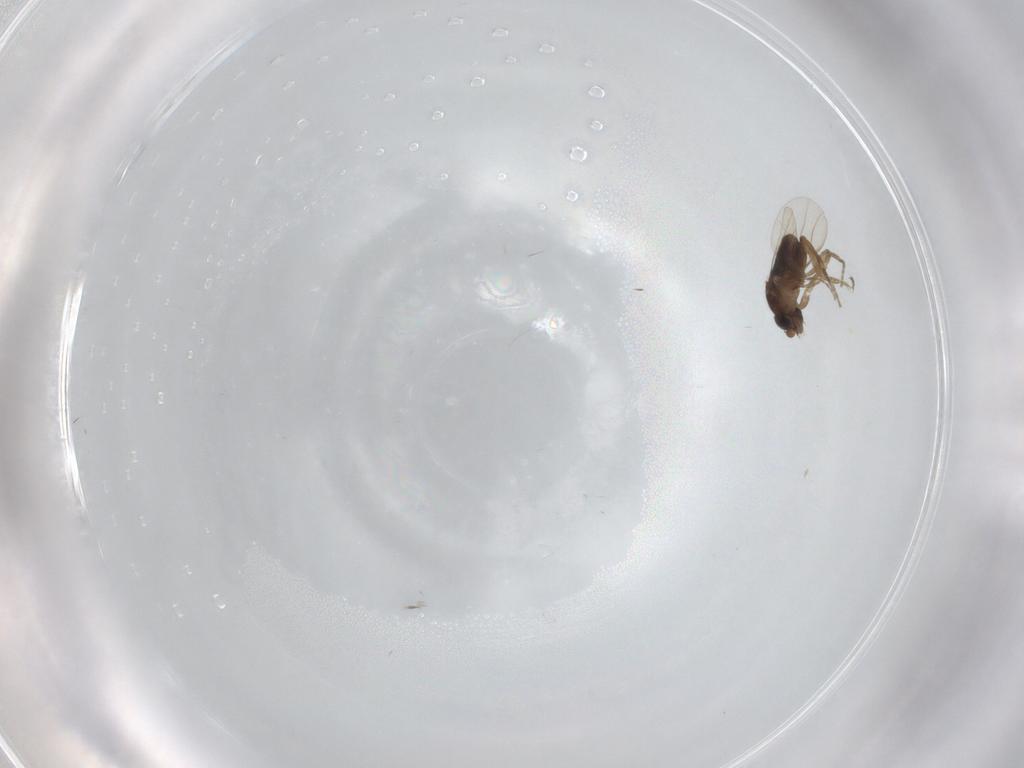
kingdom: Animalia
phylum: Arthropoda
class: Insecta
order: Diptera
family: Phoridae
